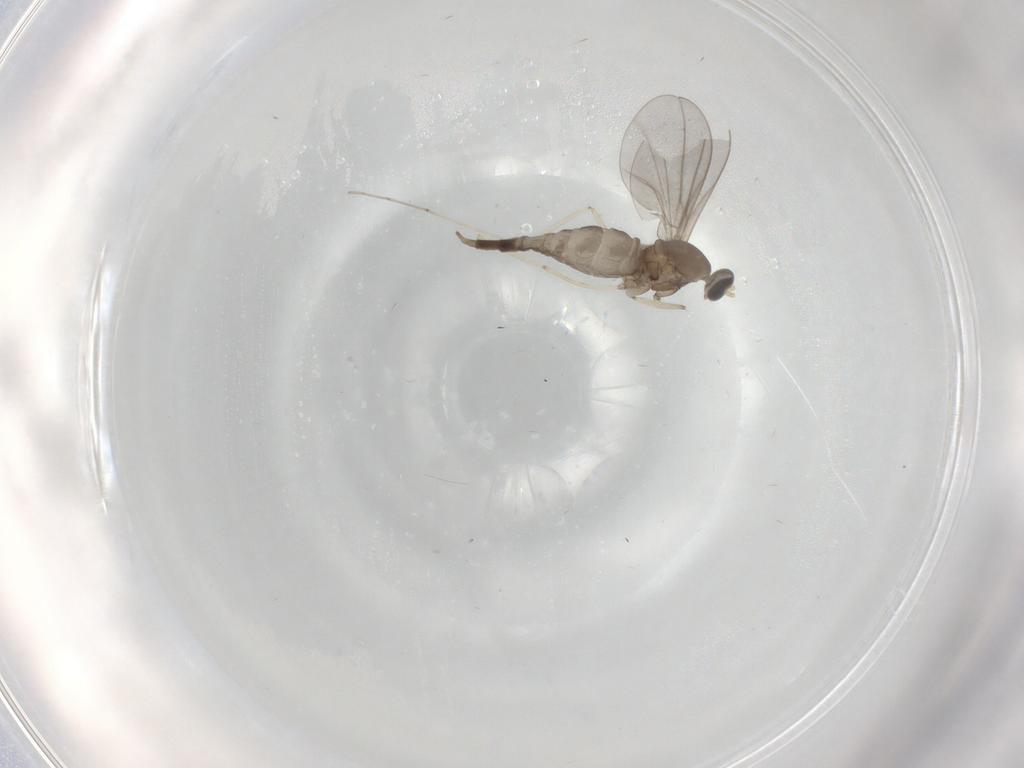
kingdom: Animalia
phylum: Arthropoda
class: Insecta
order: Diptera
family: Cecidomyiidae
